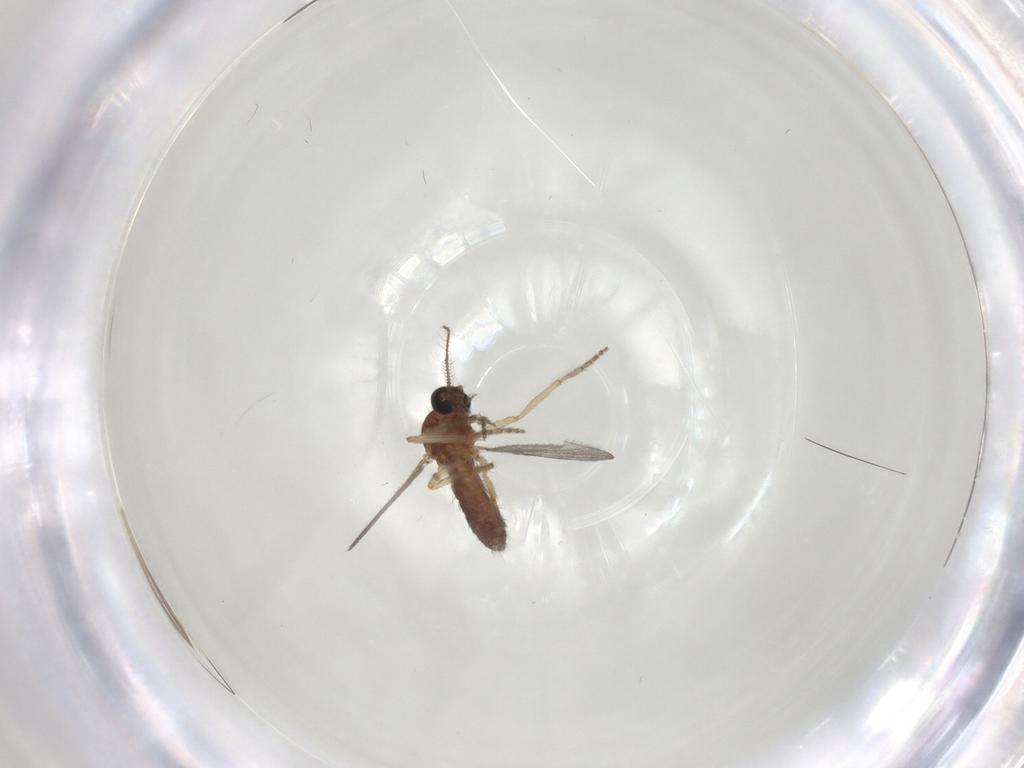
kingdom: Animalia
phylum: Arthropoda
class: Insecta
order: Diptera
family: Ceratopogonidae
